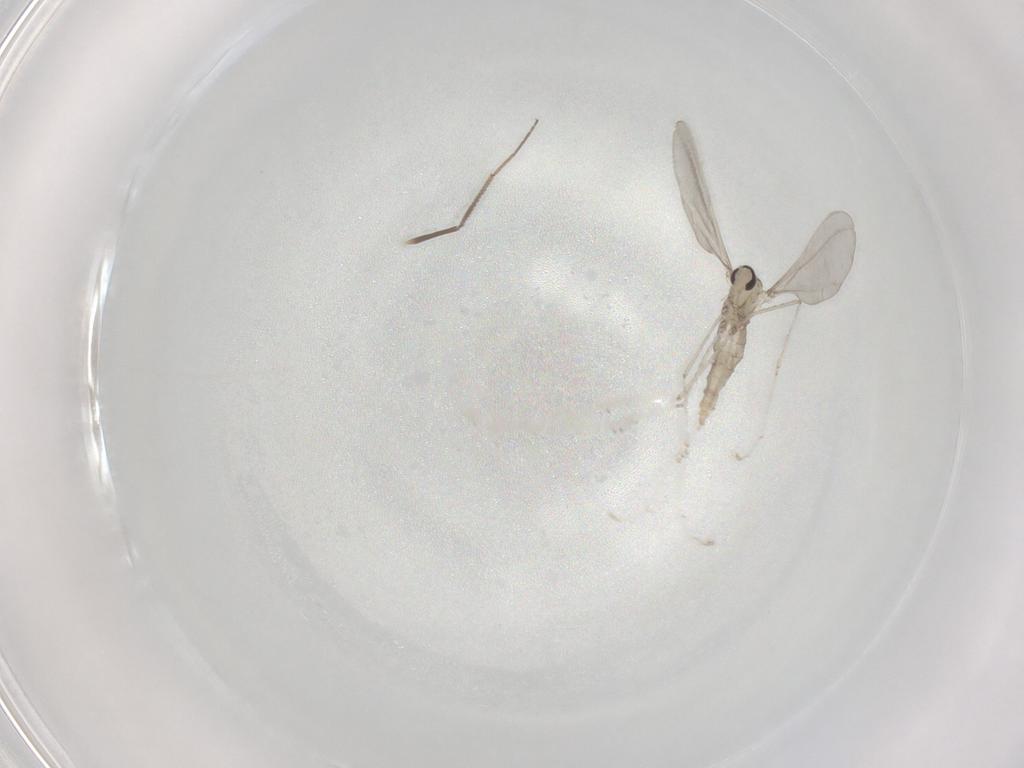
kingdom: Animalia
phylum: Arthropoda
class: Insecta
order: Diptera
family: Cecidomyiidae
